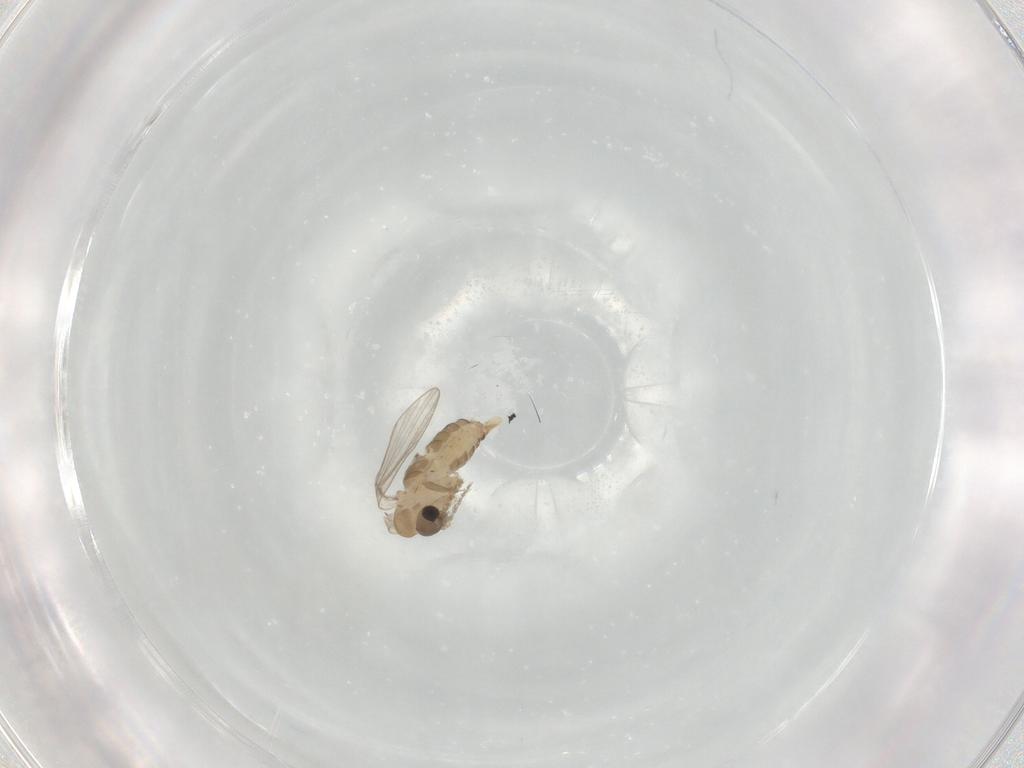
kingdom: Animalia
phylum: Arthropoda
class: Insecta
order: Diptera
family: Psychodidae
